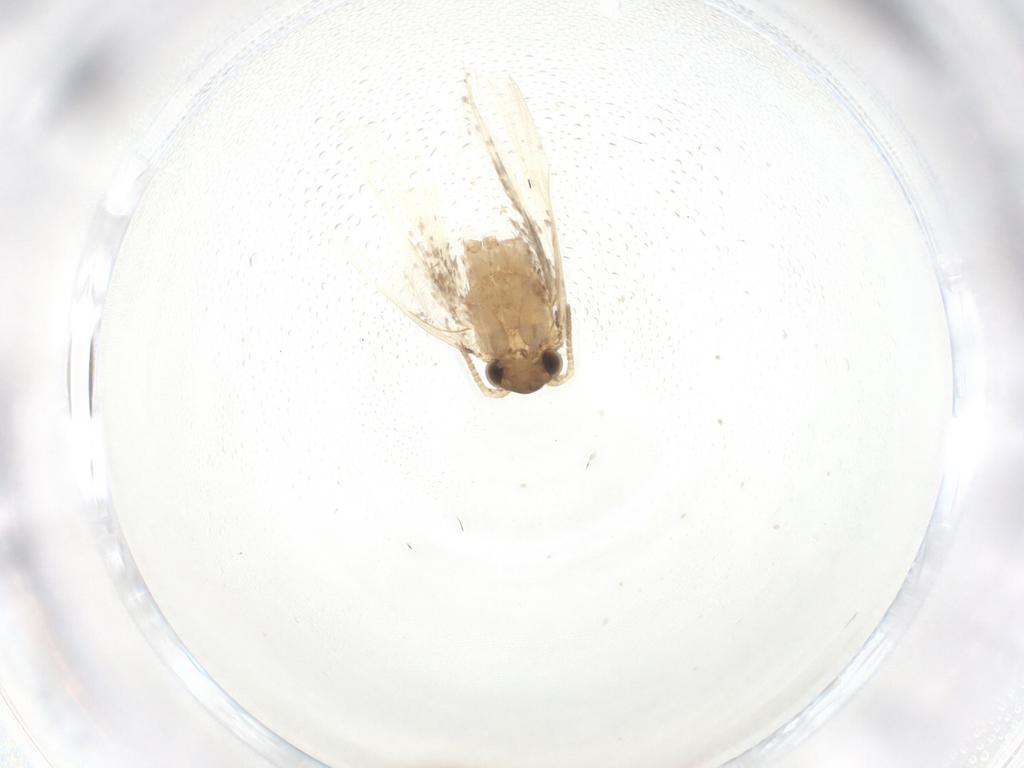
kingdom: Animalia
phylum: Arthropoda
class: Insecta
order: Lepidoptera
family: Dryadaulidae
